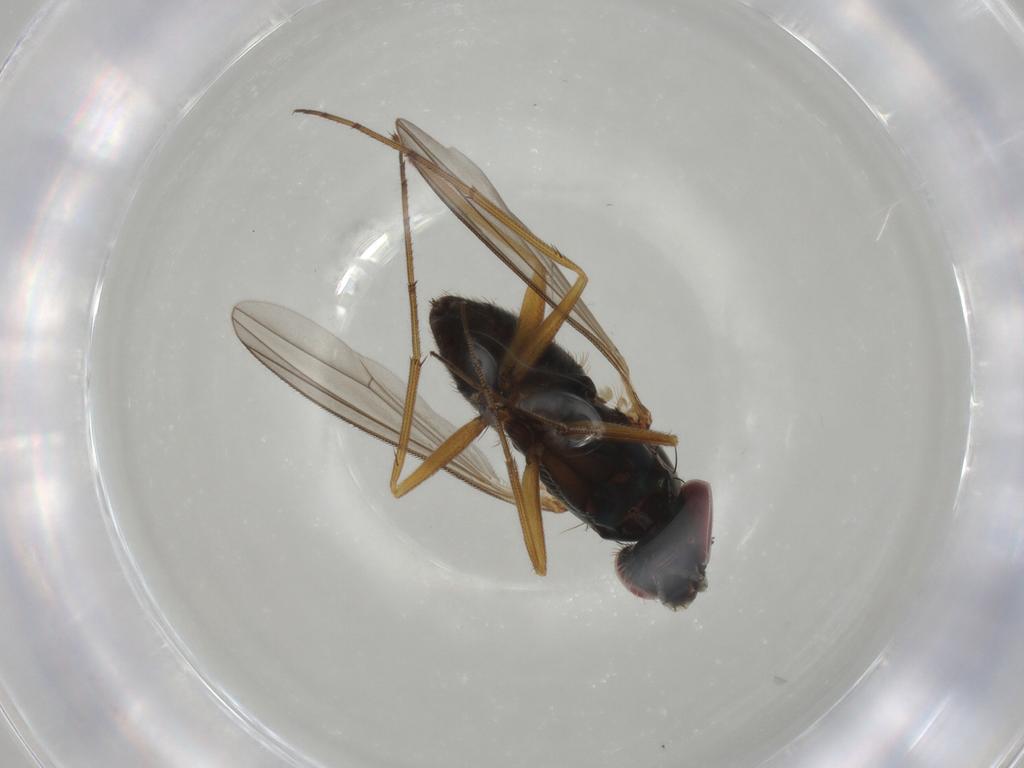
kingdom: Animalia
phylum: Arthropoda
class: Insecta
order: Diptera
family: Dolichopodidae
